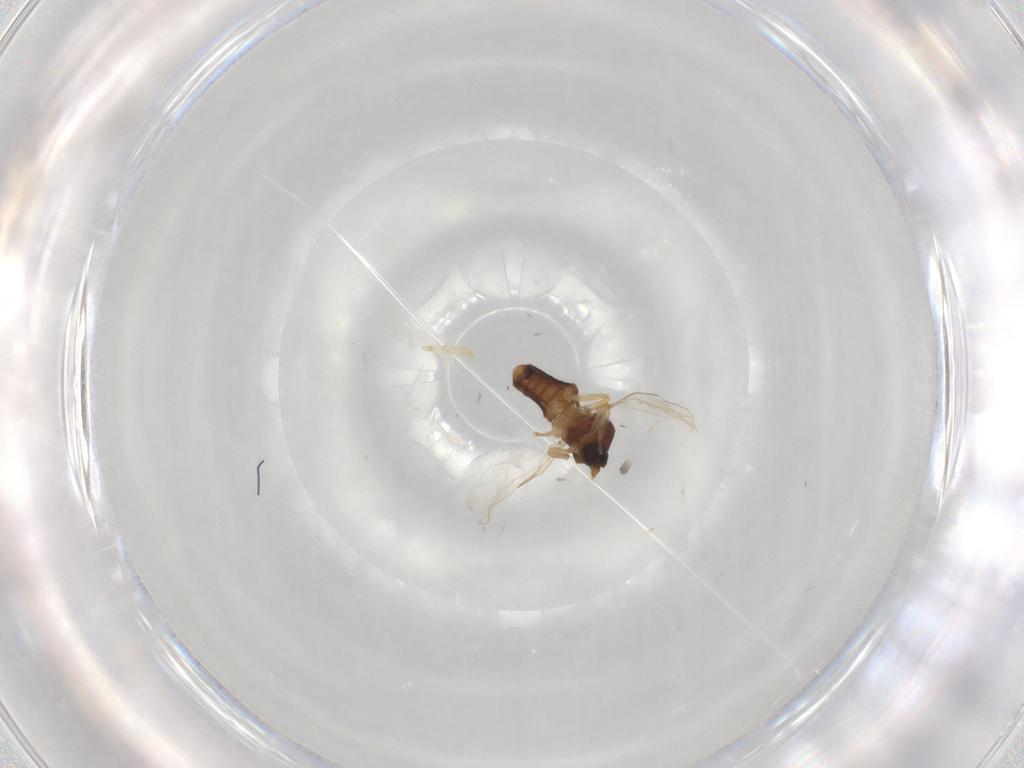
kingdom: Animalia
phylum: Arthropoda
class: Insecta
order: Diptera
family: Ceratopogonidae
